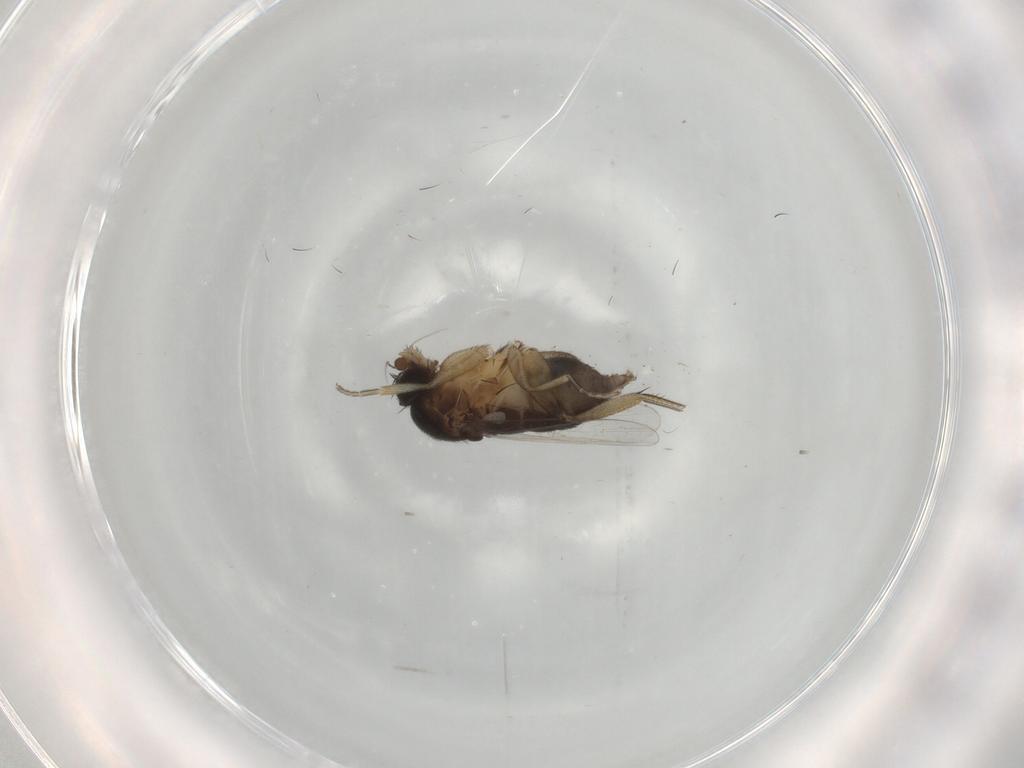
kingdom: Animalia
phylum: Arthropoda
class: Insecta
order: Diptera
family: Phoridae
